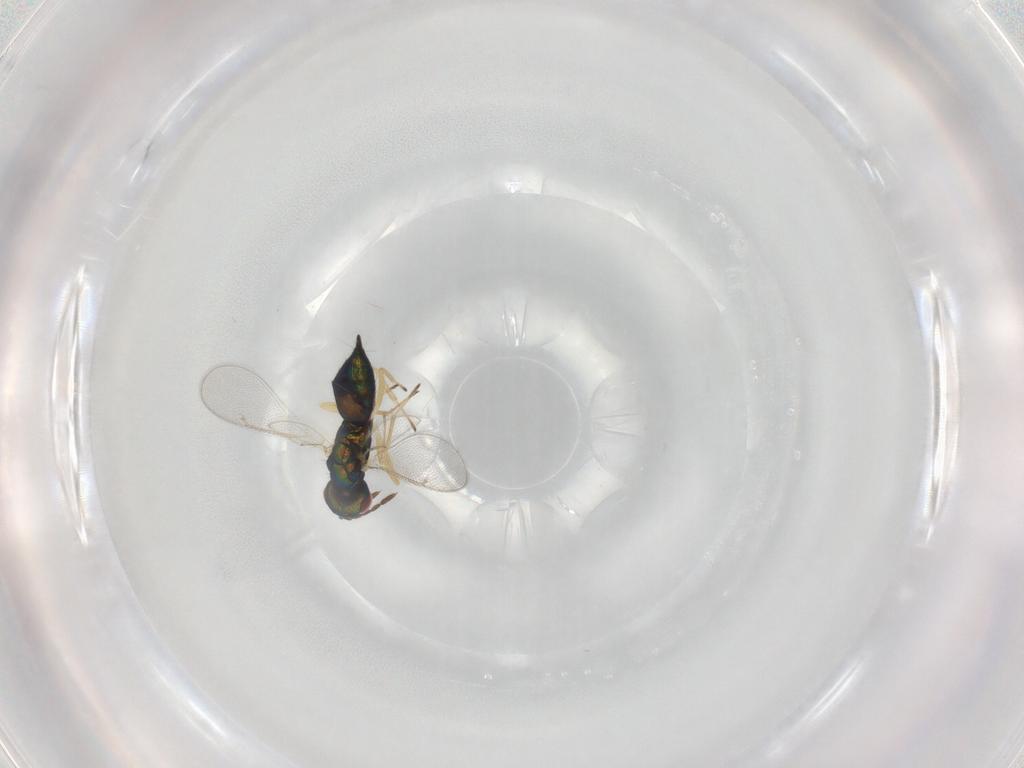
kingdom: Animalia
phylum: Arthropoda
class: Insecta
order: Hymenoptera
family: Eulophidae
